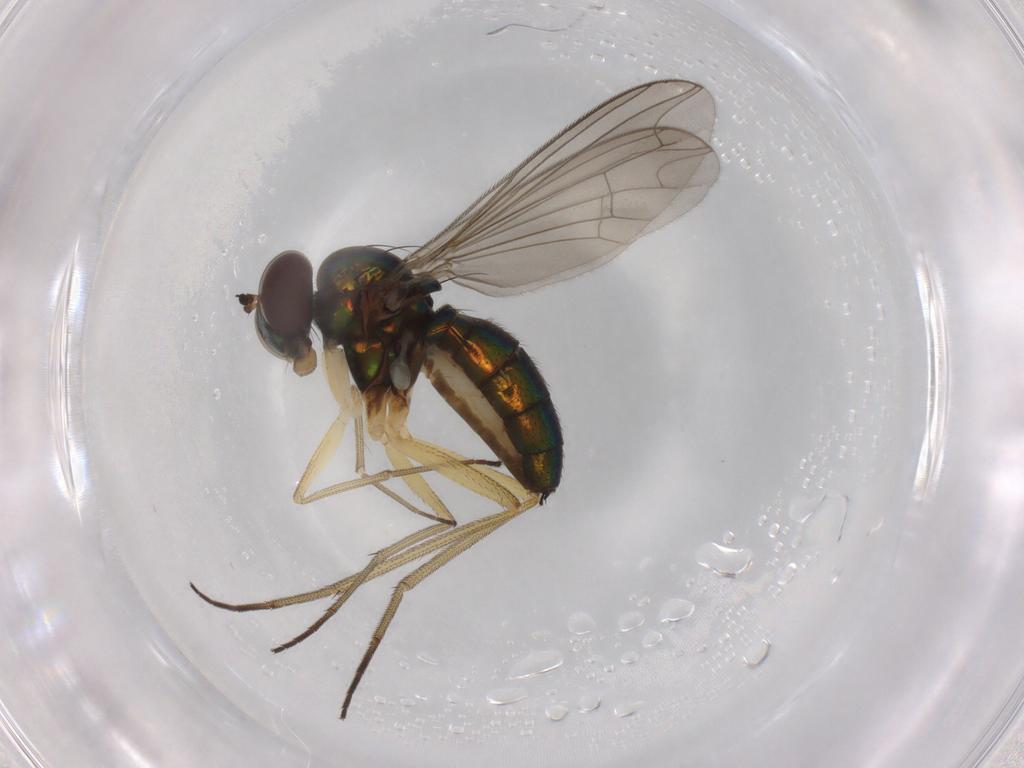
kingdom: Animalia
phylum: Arthropoda
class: Insecta
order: Diptera
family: Dolichopodidae
